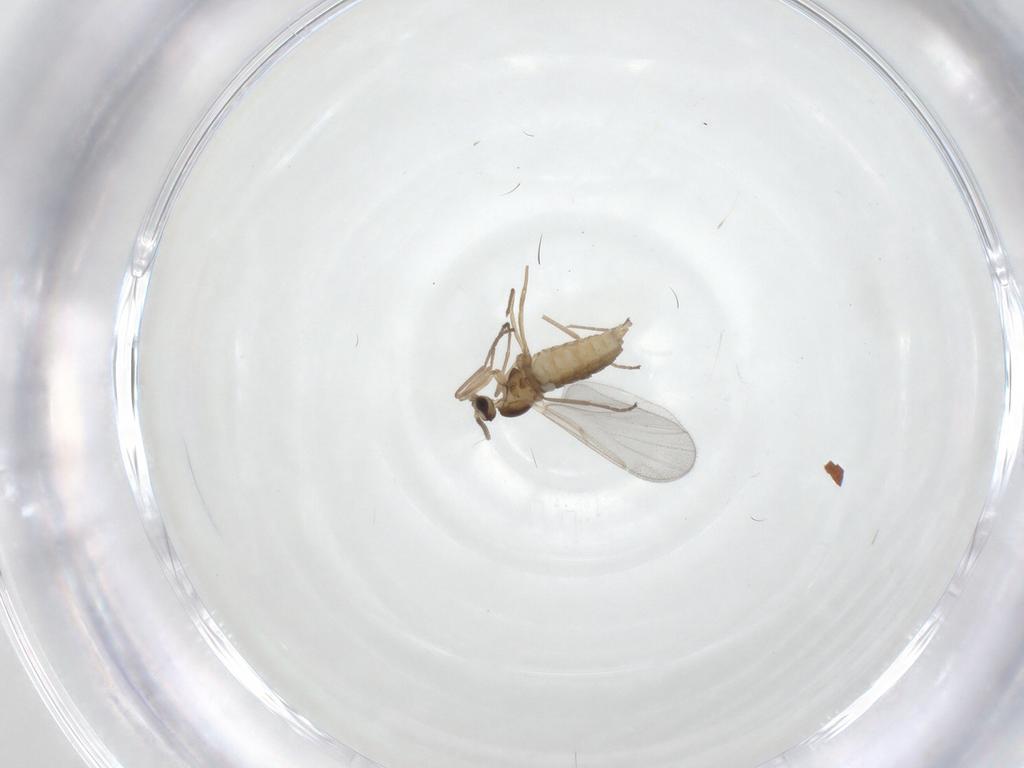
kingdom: Animalia
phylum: Arthropoda
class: Insecta
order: Diptera
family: Cecidomyiidae
